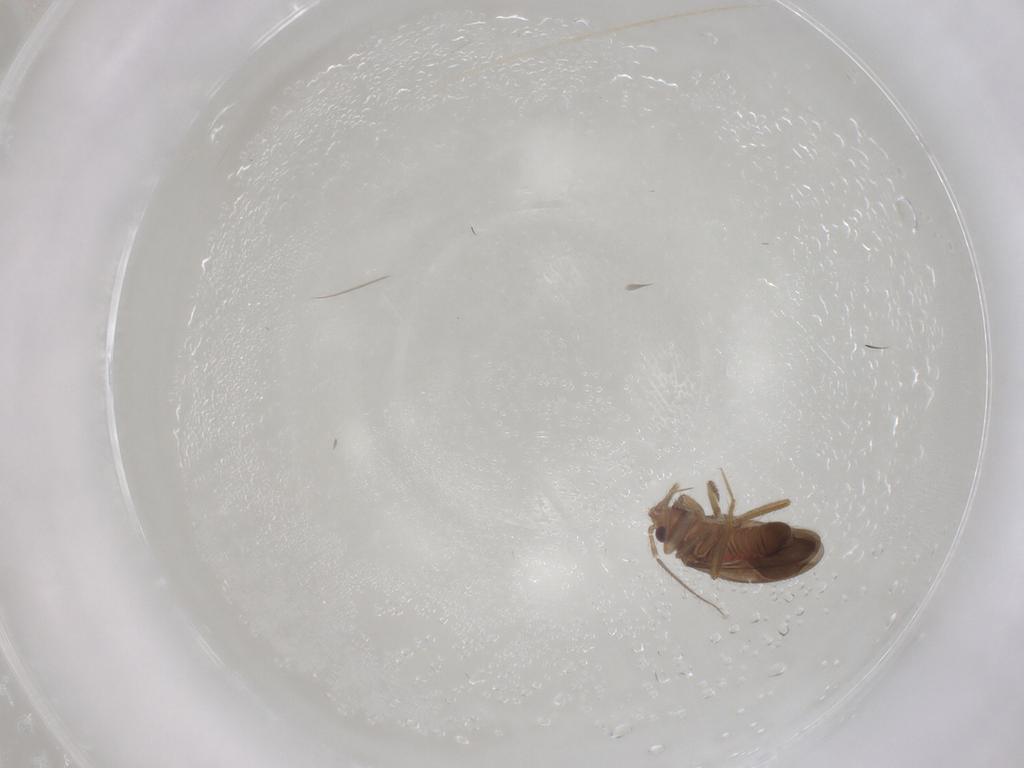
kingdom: Animalia
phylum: Arthropoda
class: Insecta
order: Hemiptera
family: Ceratocombidae
